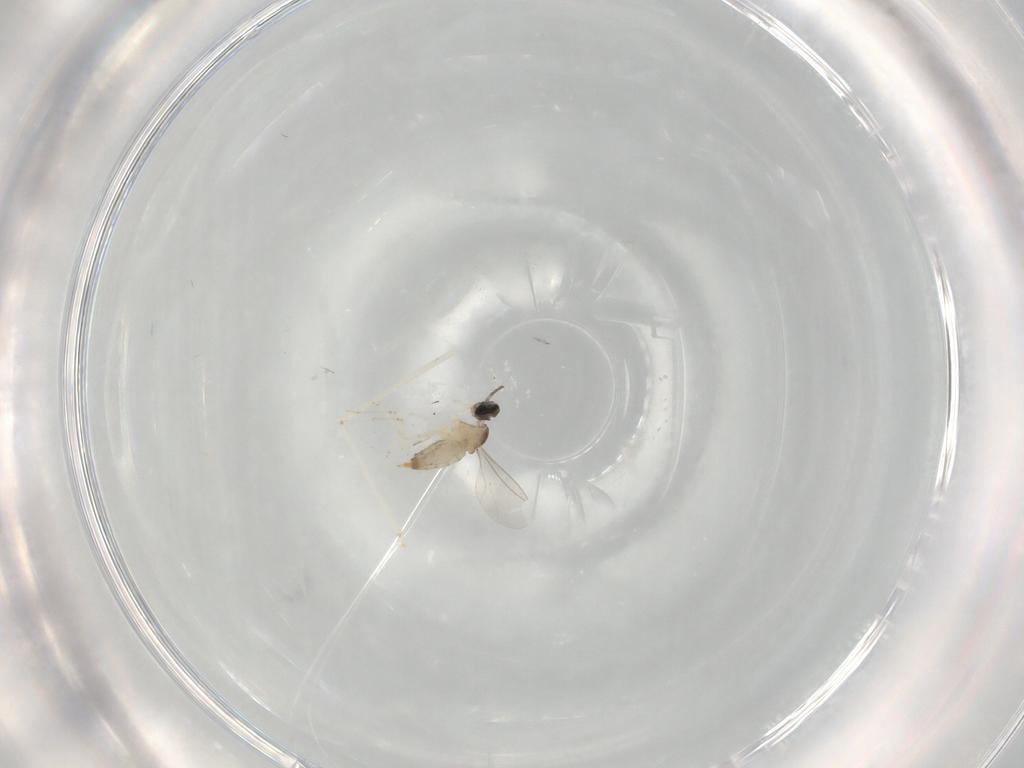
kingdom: Animalia
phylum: Arthropoda
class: Insecta
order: Diptera
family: Cecidomyiidae
